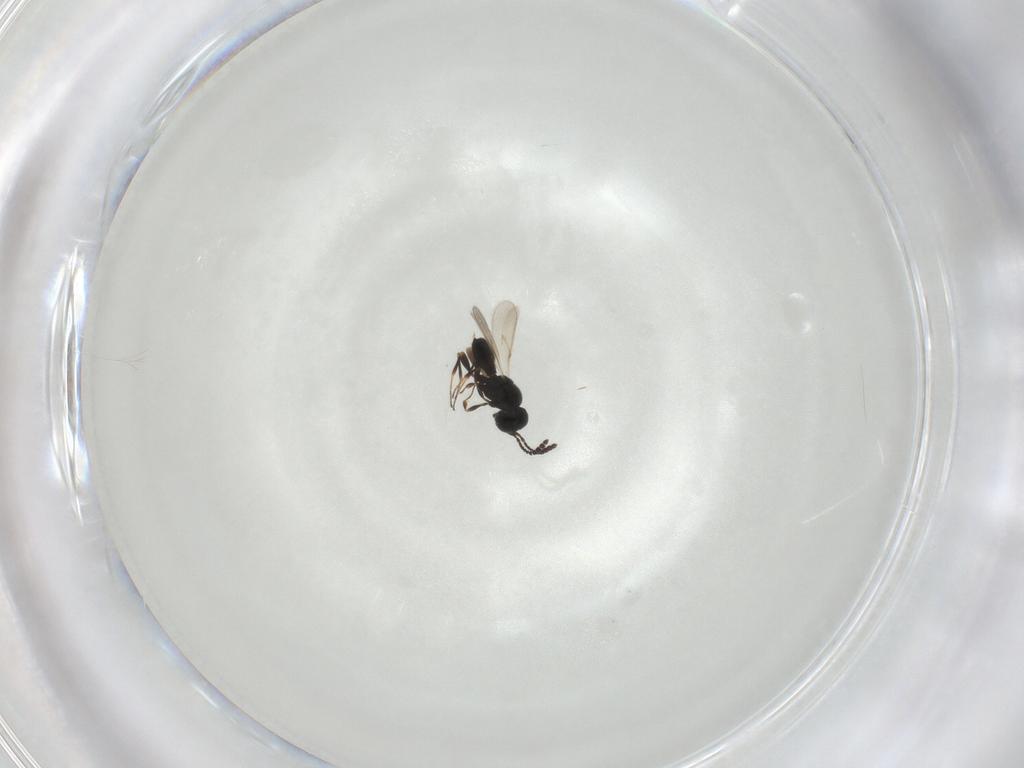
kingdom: Animalia
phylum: Arthropoda
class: Insecta
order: Hymenoptera
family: Scelionidae
